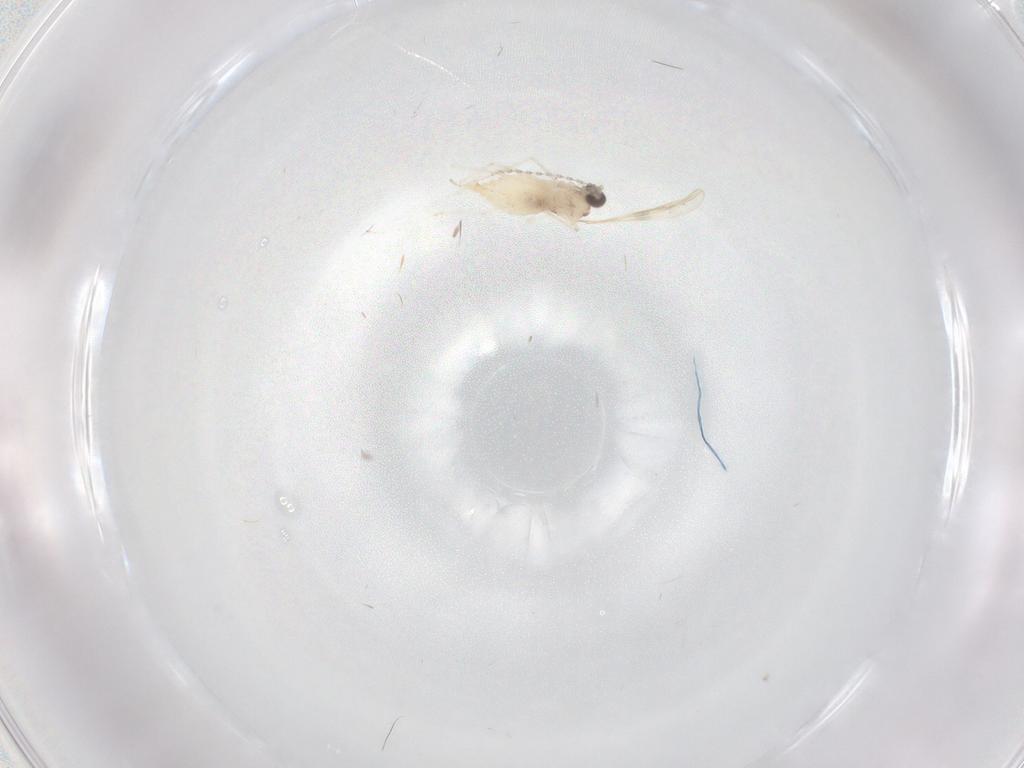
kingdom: Animalia
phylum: Arthropoda
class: Insecta
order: Diptera
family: Cecidomyiidae
